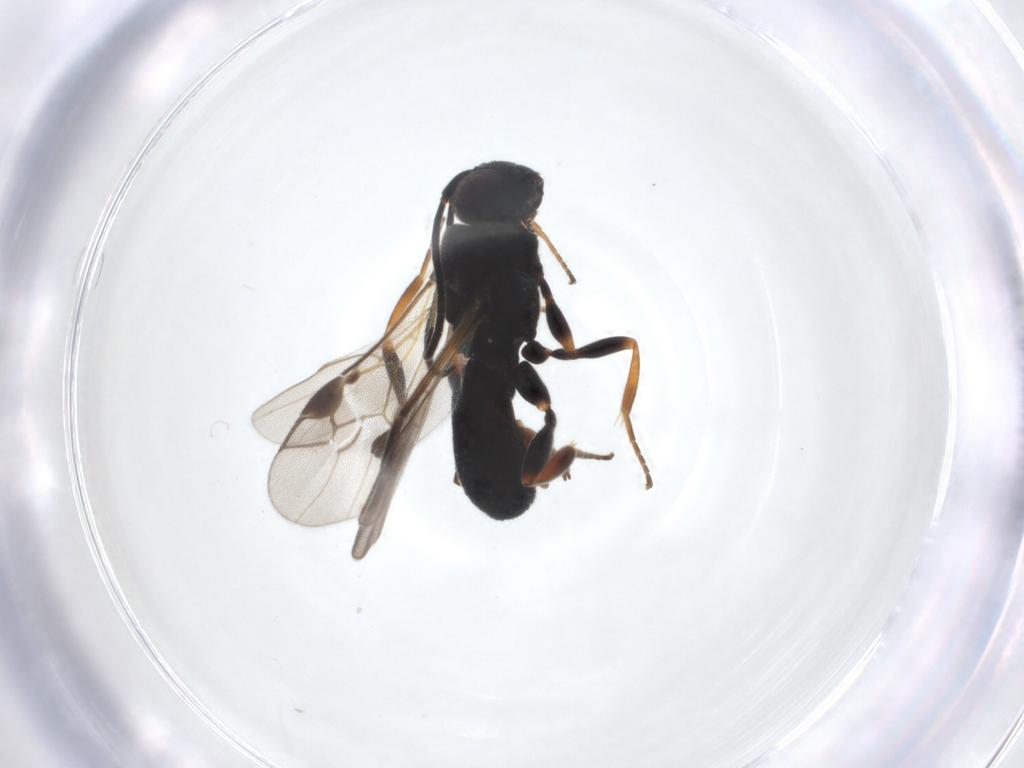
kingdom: Animalia
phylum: Arthropoda
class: Insecta
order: Hymenoptera
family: Braconidae
